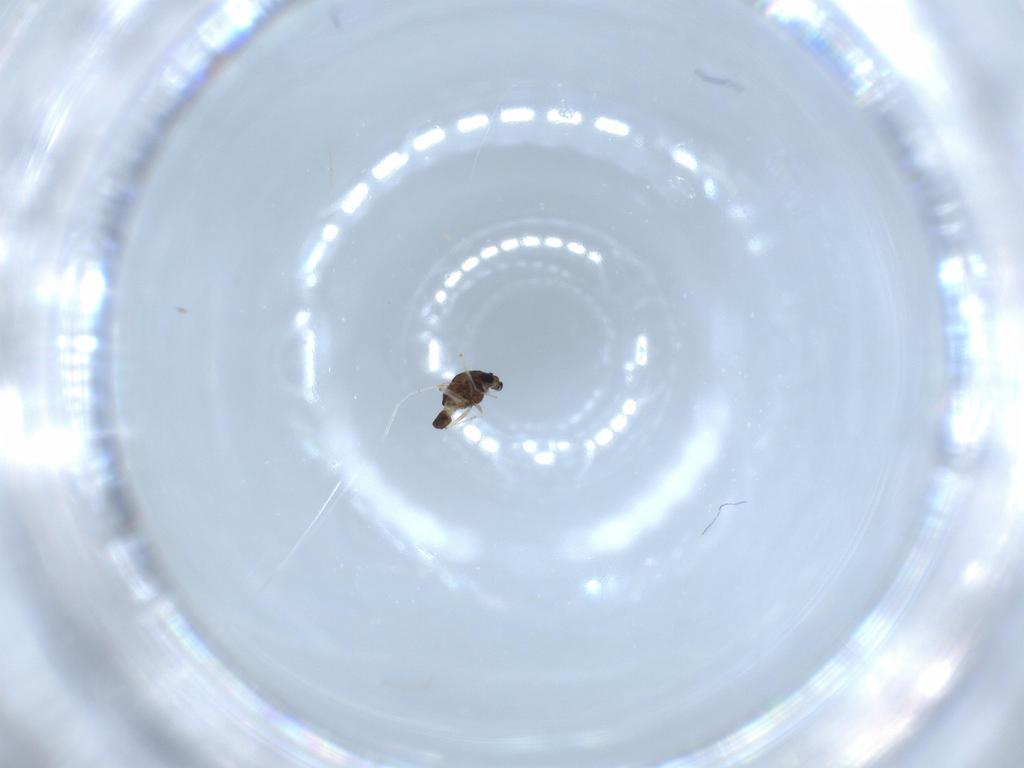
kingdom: Animalia
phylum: Arthropoda
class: Insecta
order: Diptera
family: Chironomidae
